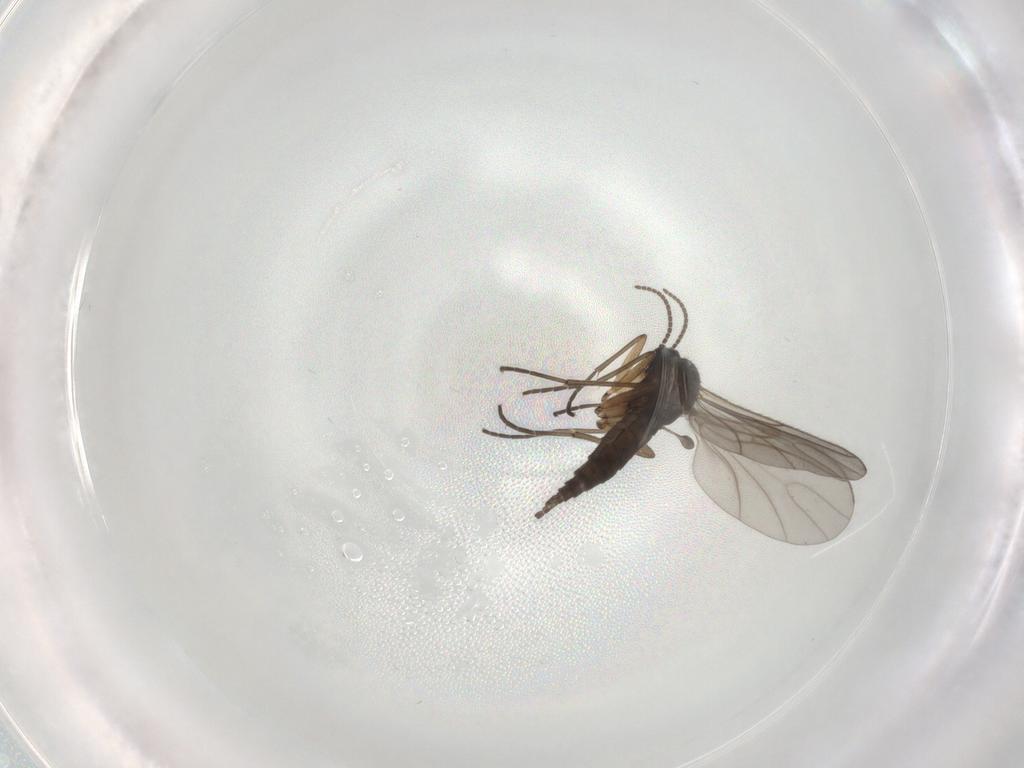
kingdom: Animalia
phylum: Arthropoda
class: Insecta
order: Diptera
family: Sciaridae
